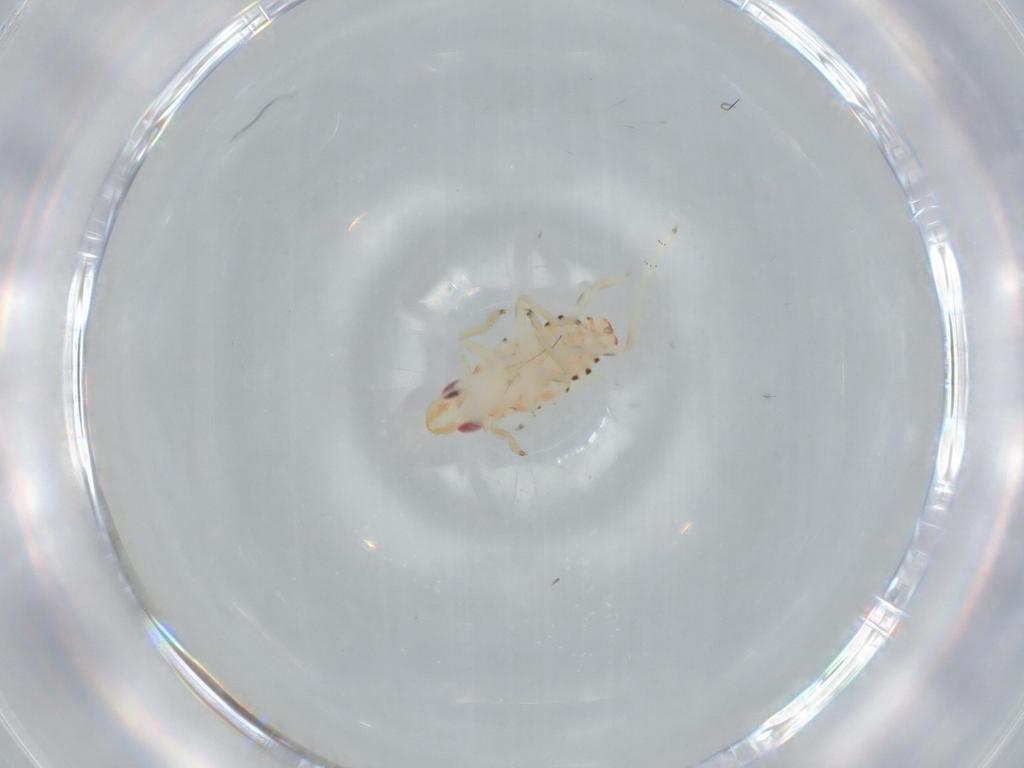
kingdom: Animalia
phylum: Arthropoda
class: Insecta
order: Hemiptera
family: Tropiduchidae
